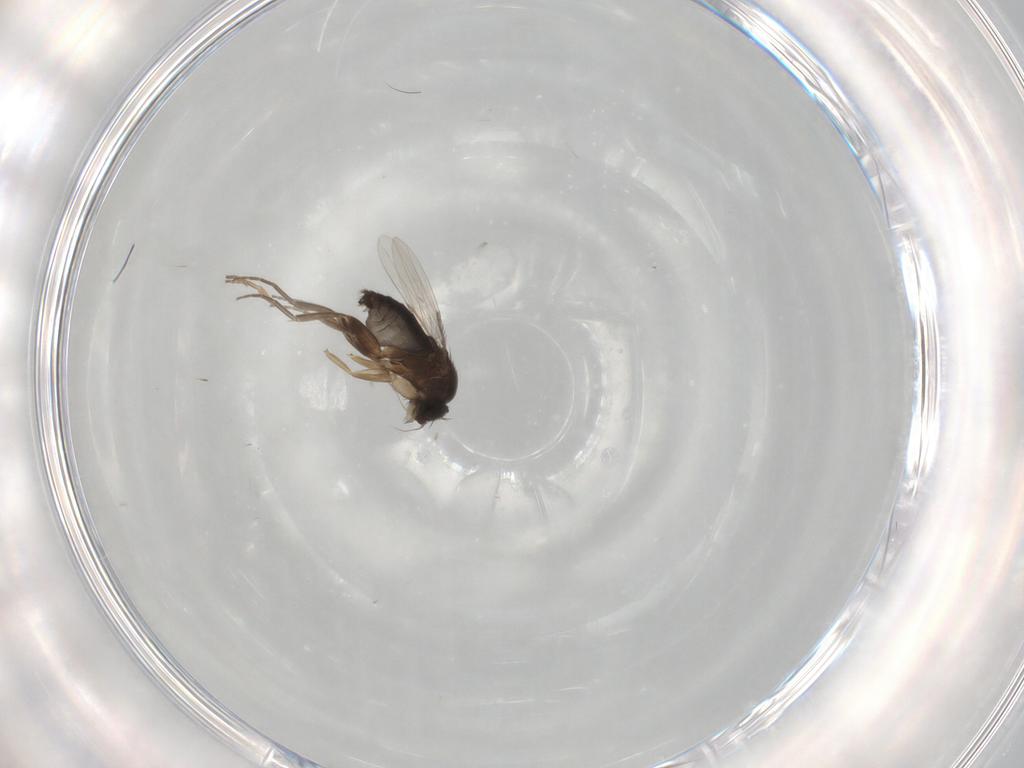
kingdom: Animalia
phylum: Arthropoda
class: Insecta
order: Diptera
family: Phoridae
